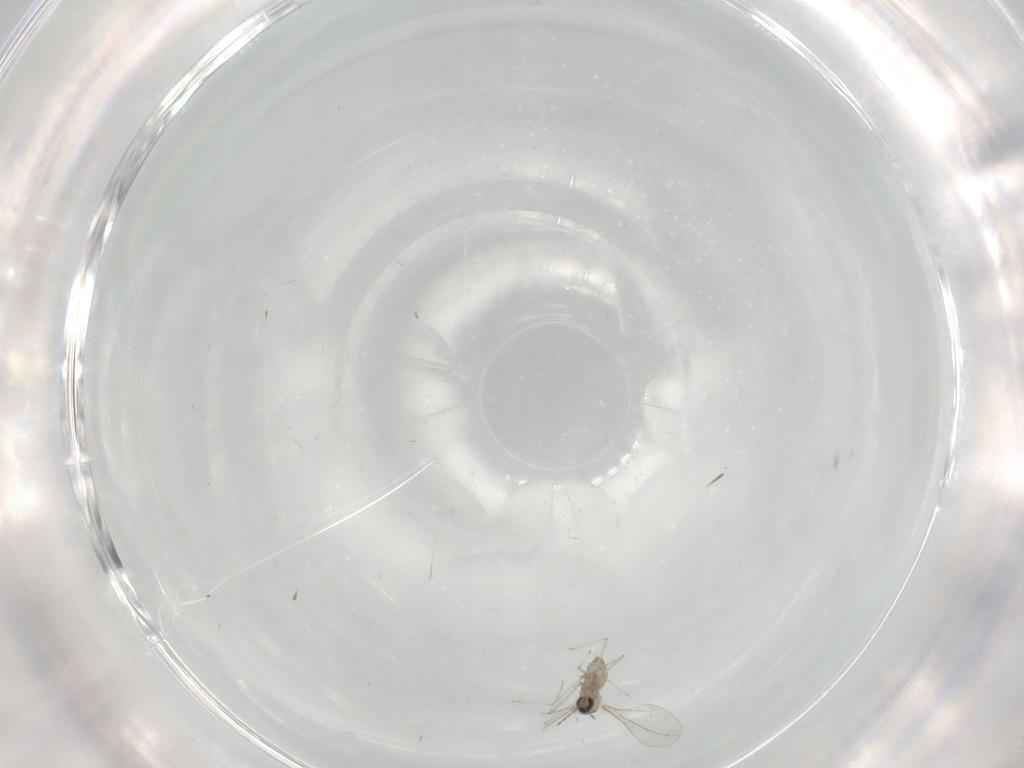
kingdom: Animalia
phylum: Arthropoda
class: Insecta
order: Diptera
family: Cecidomyiidae
